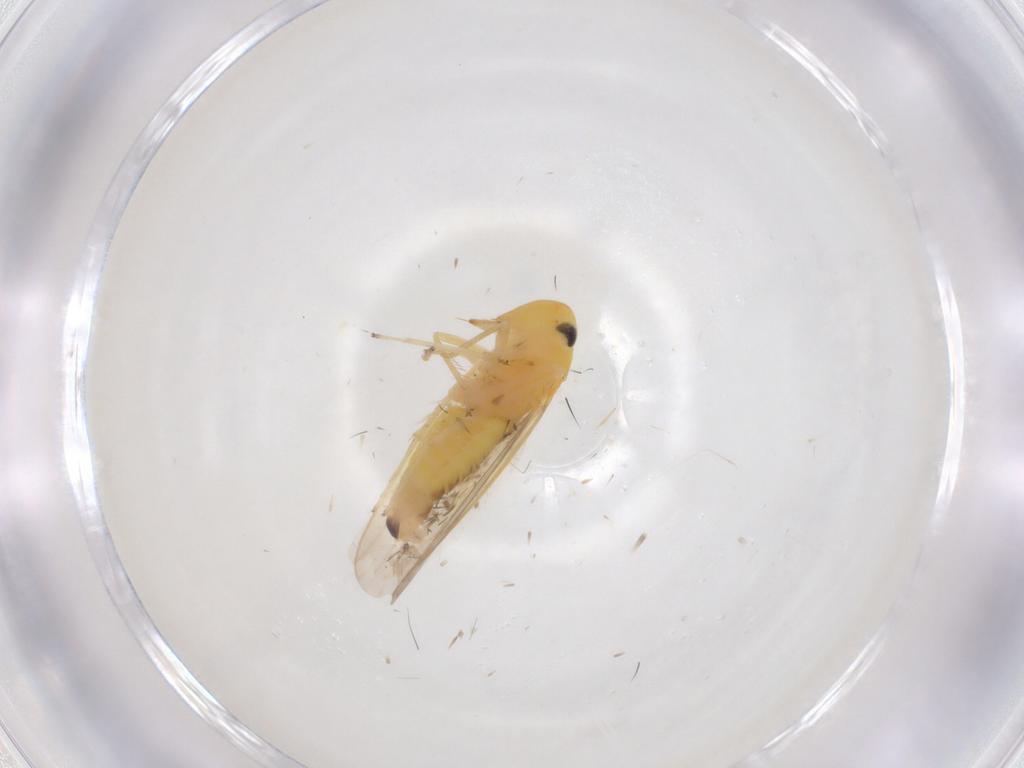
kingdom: Animalia
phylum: Arthropoda
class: Insecta
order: Hemiptera
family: Cicadellidae
